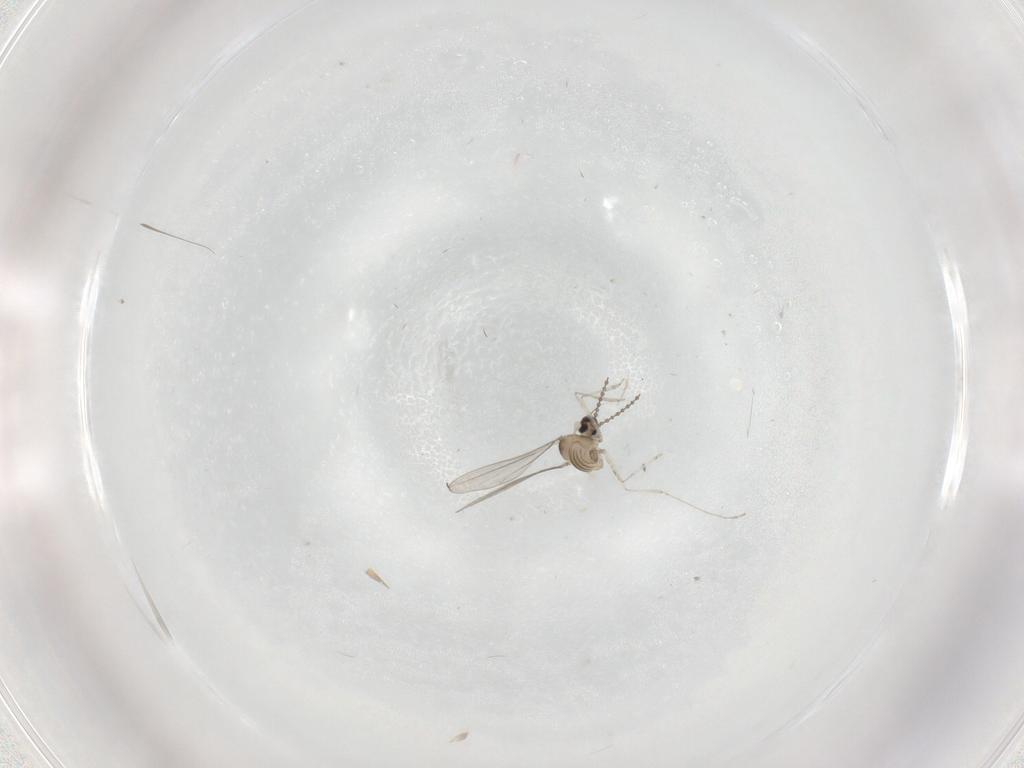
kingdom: Animalia
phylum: Arthropoda
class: Insecta
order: Diptera
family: Cecidomyiidae
